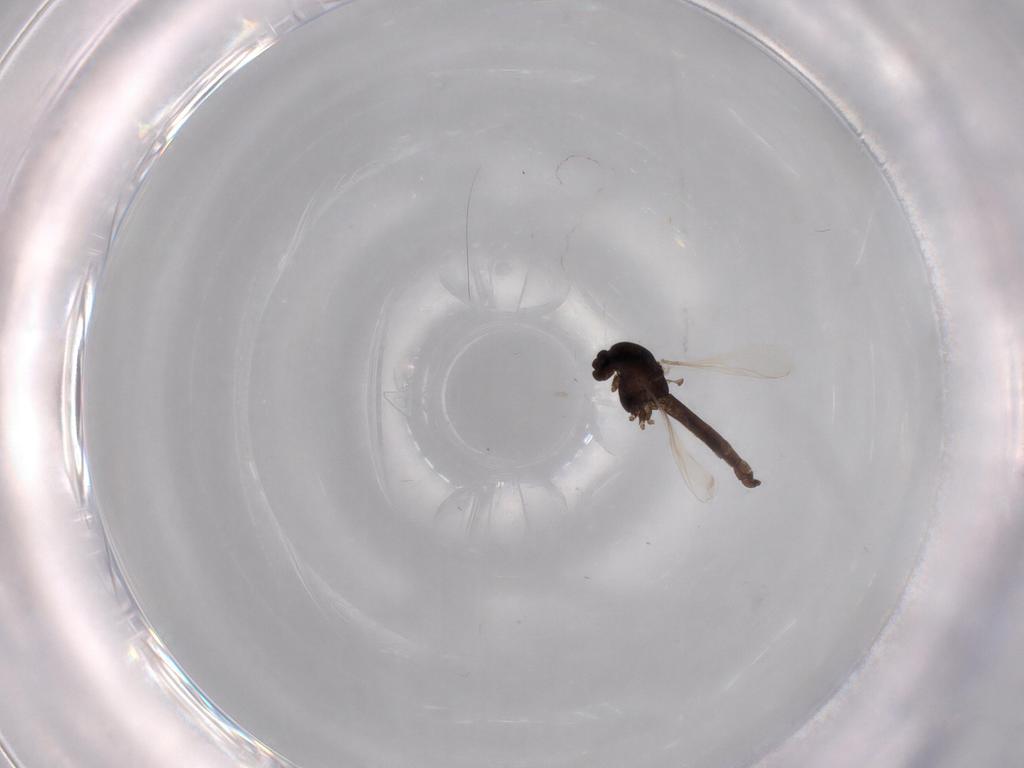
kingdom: Animalia
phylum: Arthropoda
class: Insecta
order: Diptera
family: Chironomidae
